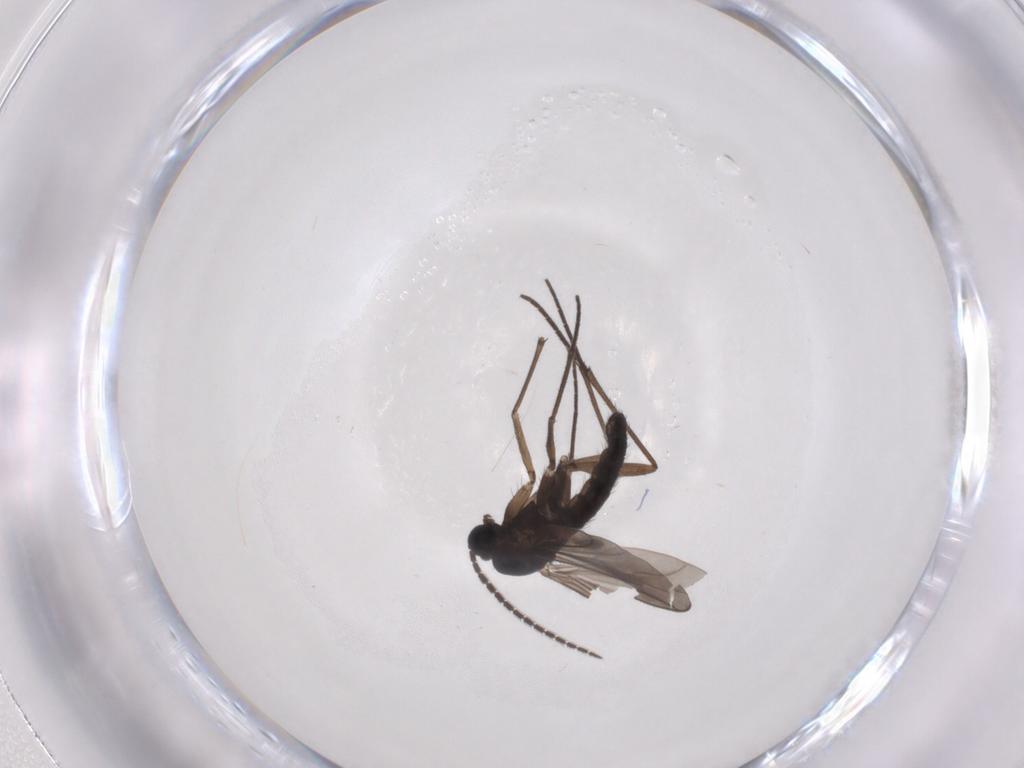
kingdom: Animalia
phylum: Arthropoda
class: Insecta
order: Diptera
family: Sciaridae
